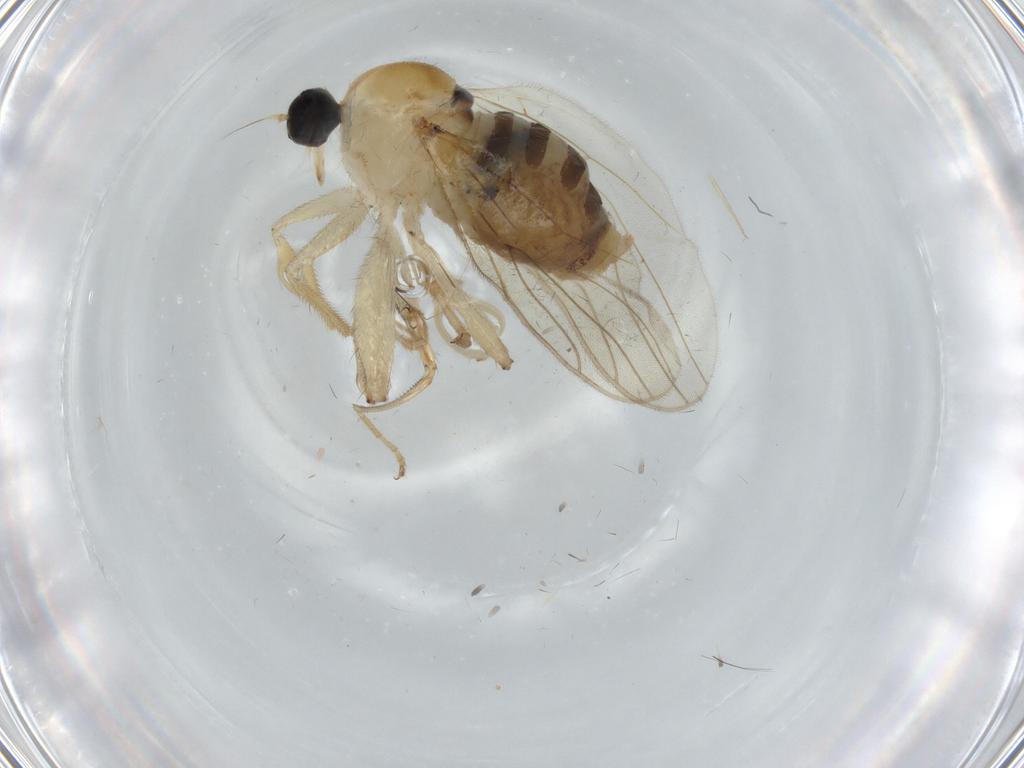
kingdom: Animalia
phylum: Arthropoda
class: Insecta
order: Diptera
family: Hybotidae
